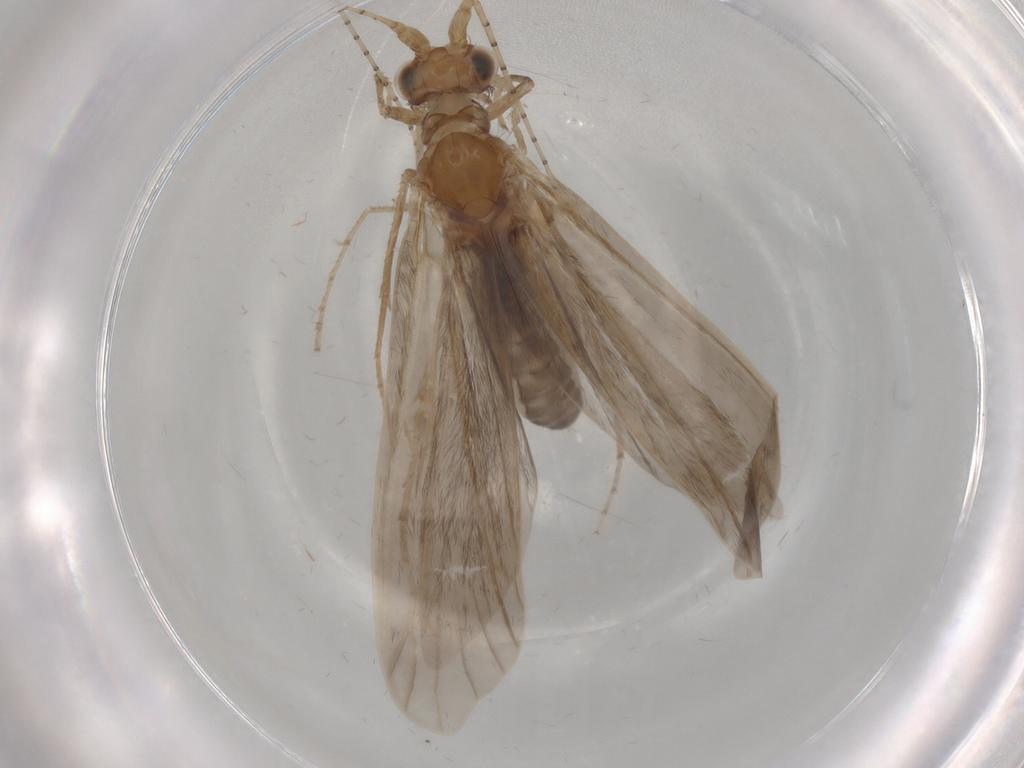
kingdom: Animalia
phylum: Arthropoda
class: Insecta
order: Trichoptera
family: Leptoceridae
